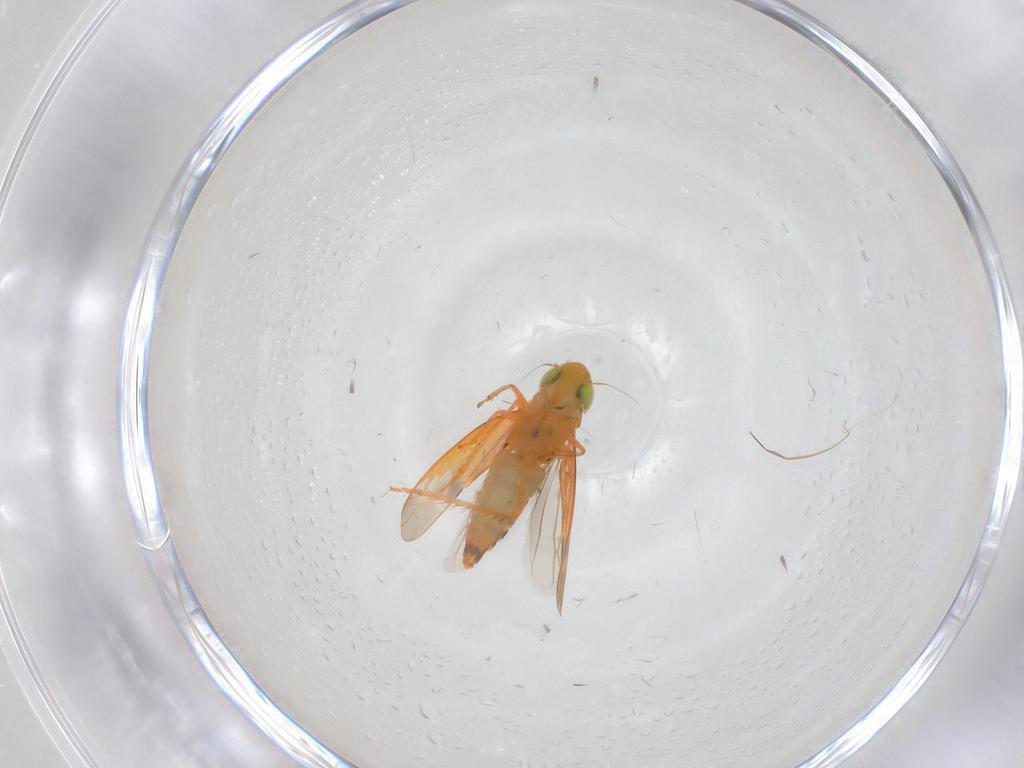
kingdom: Animalia
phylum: Arthropoda
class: Insecta
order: Hemiptera
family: Cicadellidae
